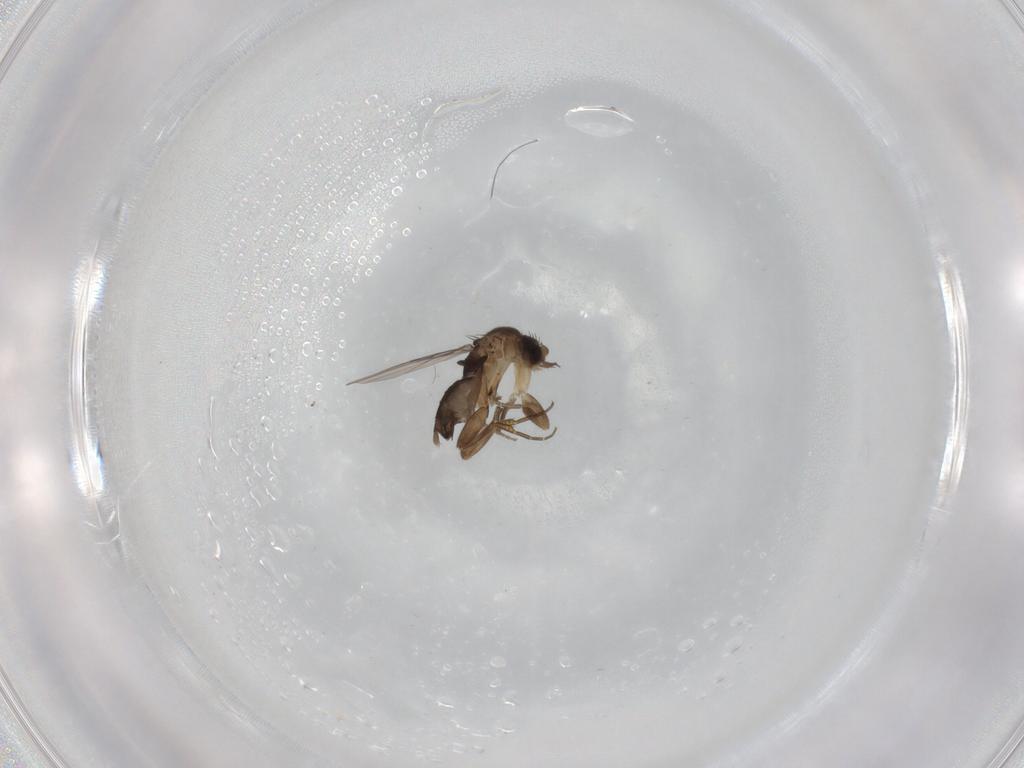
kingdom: Animalia
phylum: Arthropoda
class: Insecta
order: Diptera
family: Phoridae
